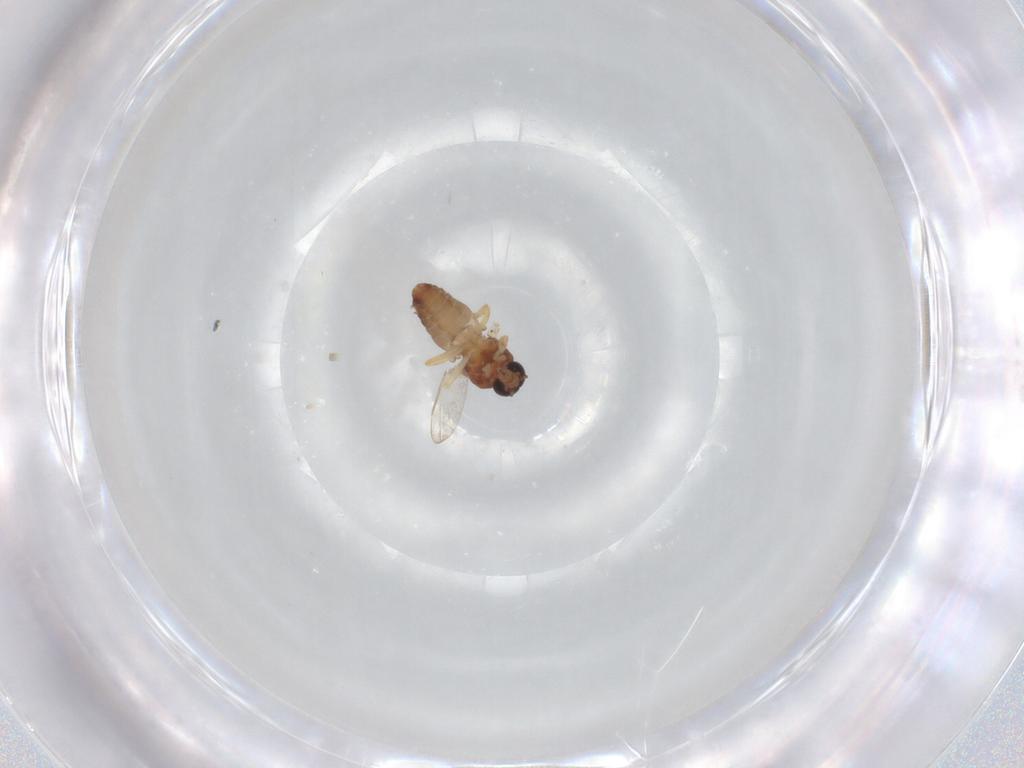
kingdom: Animalia
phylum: Arthropoda
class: Insecta
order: Diptera
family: Ceratopogonidae
